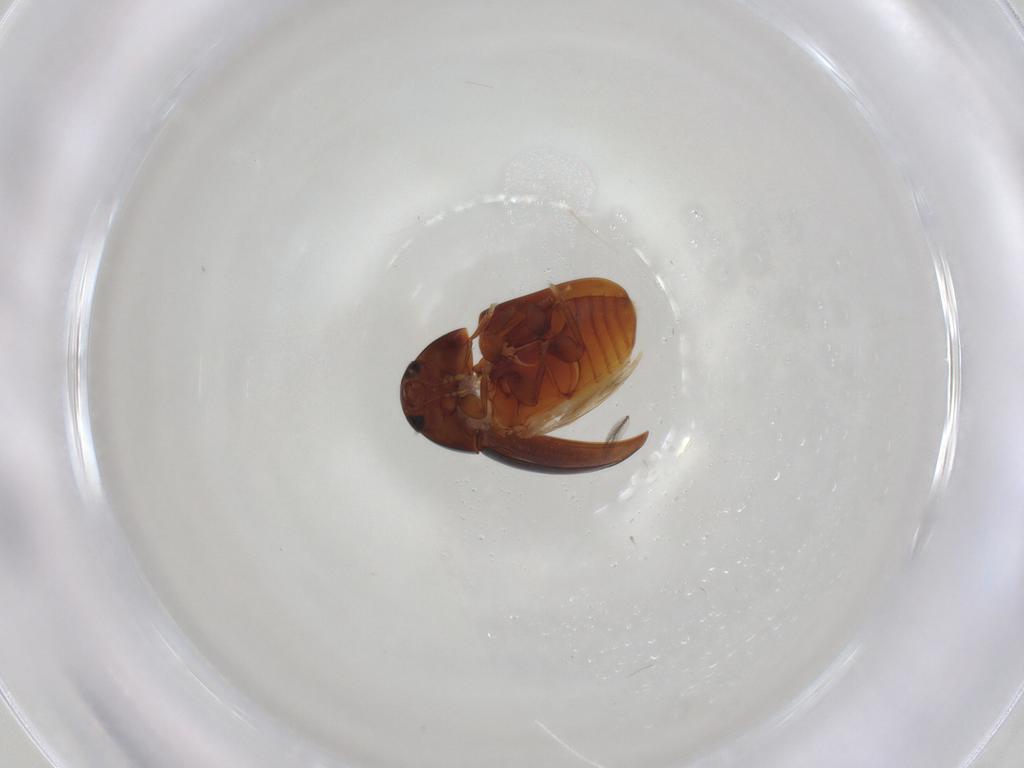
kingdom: Animalia
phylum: Arthropoda
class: Insecta
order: Coleoptera
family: Phalacridae
